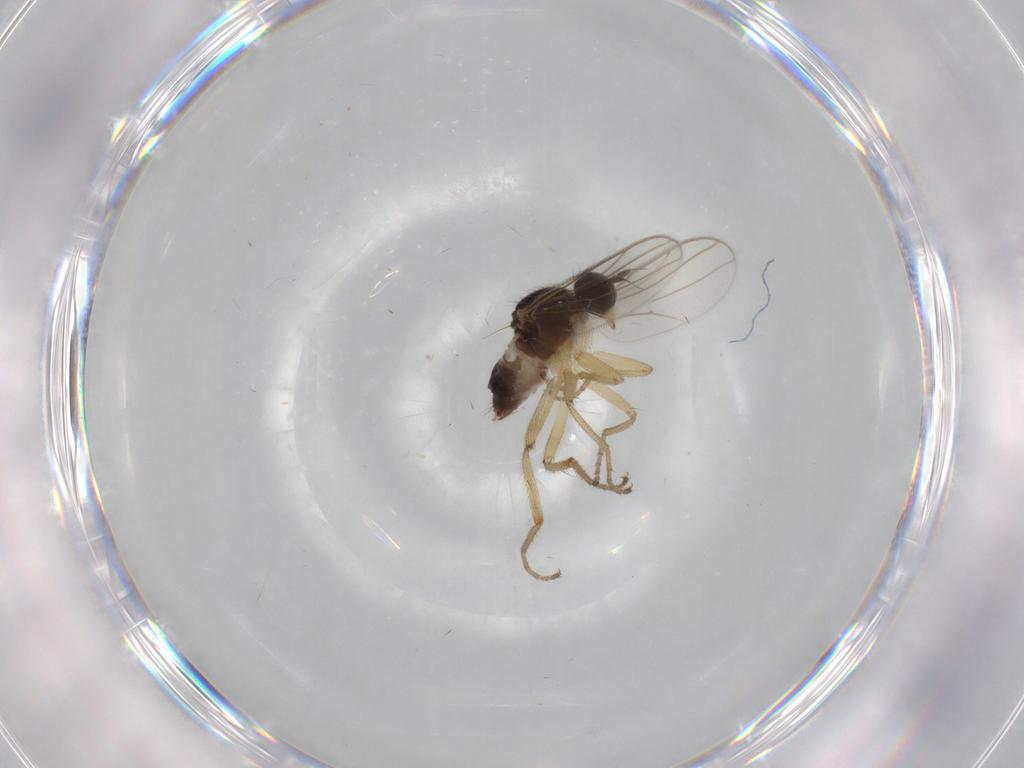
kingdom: Animalia
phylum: Arthropoda
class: Insecta
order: Diptera
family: Hybotidae
